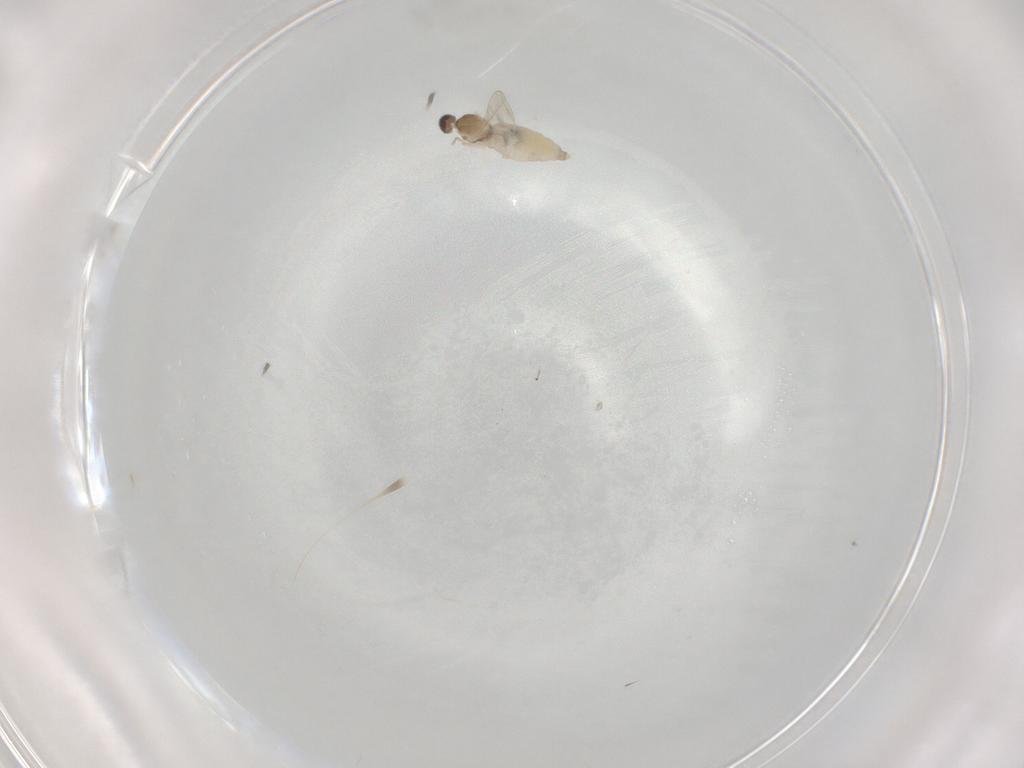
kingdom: Animalia
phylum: Arthropoda
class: Insecta
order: Diptera
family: Cecidomyiidae
